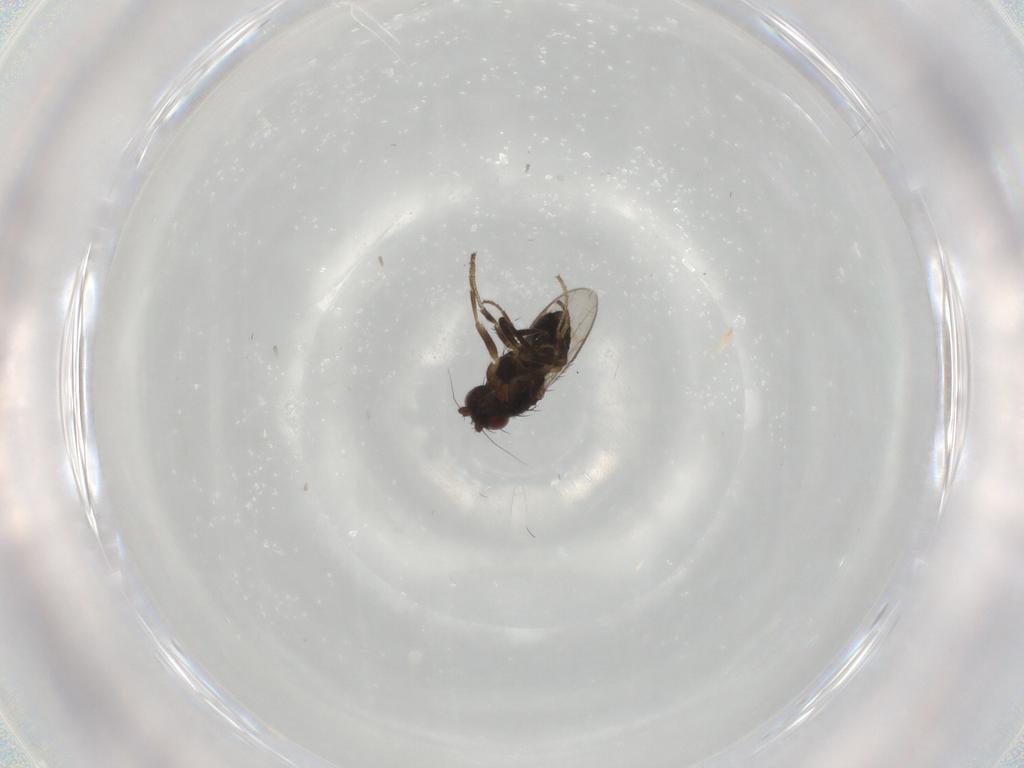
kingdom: Animalia
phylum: Arthropoda
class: Insecta
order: Diptera
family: Sphaeroceridae
